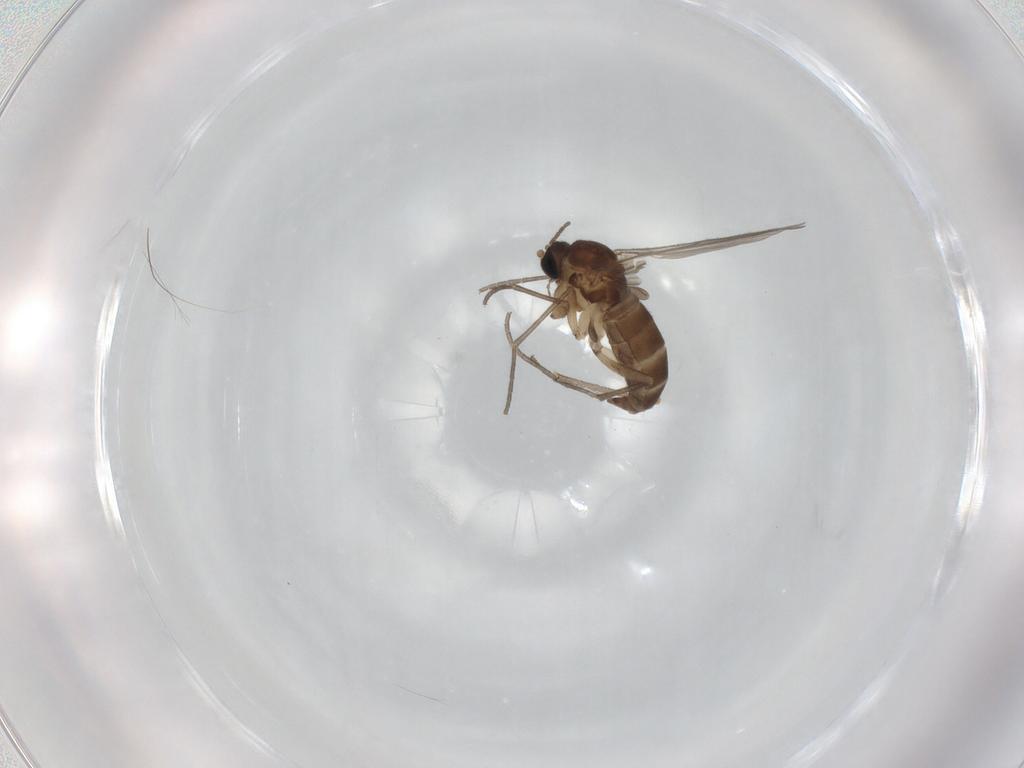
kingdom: Animalia
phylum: Arthropoda
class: Insecta
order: Diptera
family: Sciaridae
